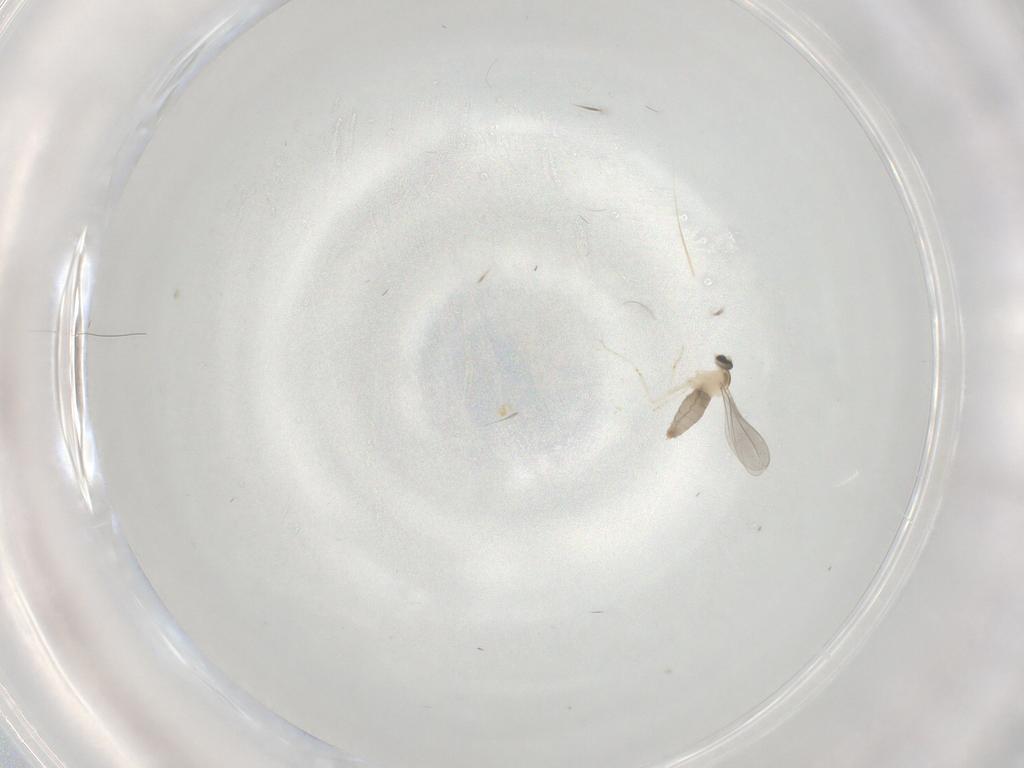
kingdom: Animalia
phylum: Arthropoda
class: Insecta
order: Diptera
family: Cecidomyiidae
